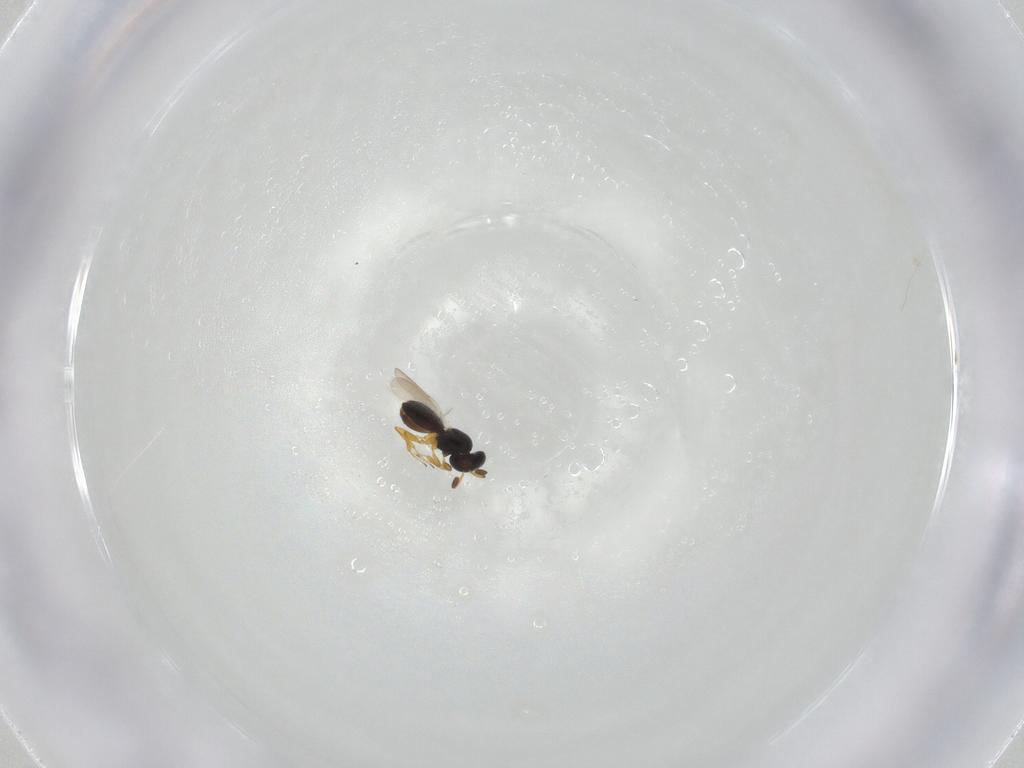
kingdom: Animalia
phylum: Arthropoda
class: Insecta
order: Hymenoptera
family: Platygastridae
